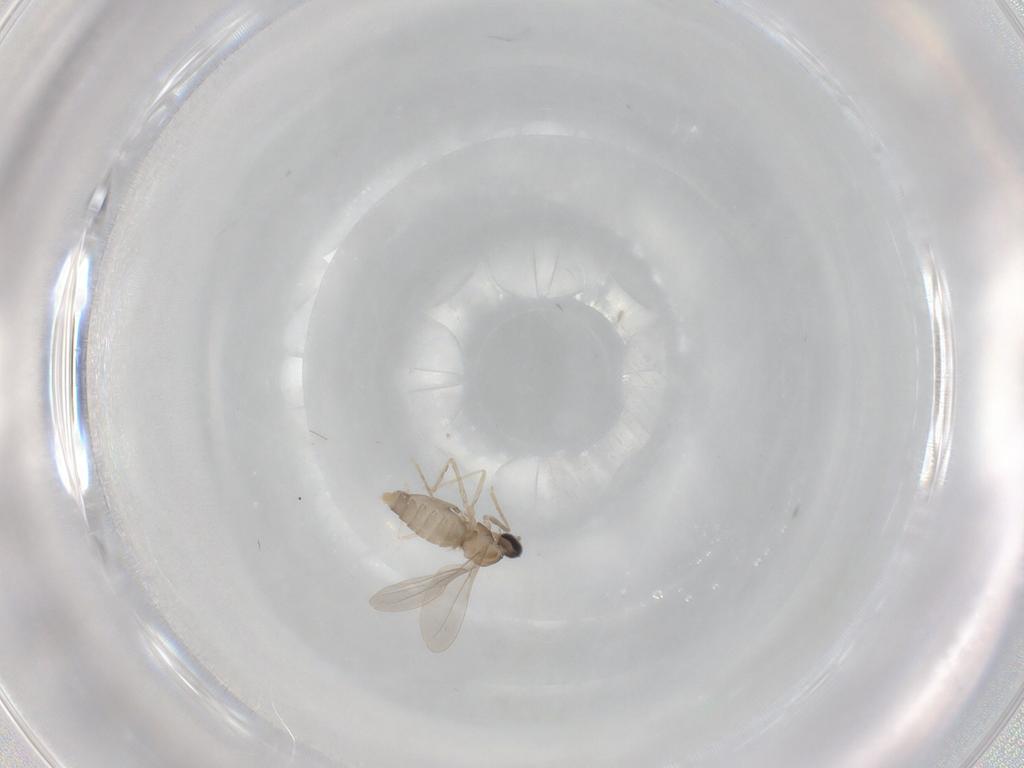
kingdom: Animalia
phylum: Arthropoda
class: Insecta
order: Diptera
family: Cecidomyiidae
